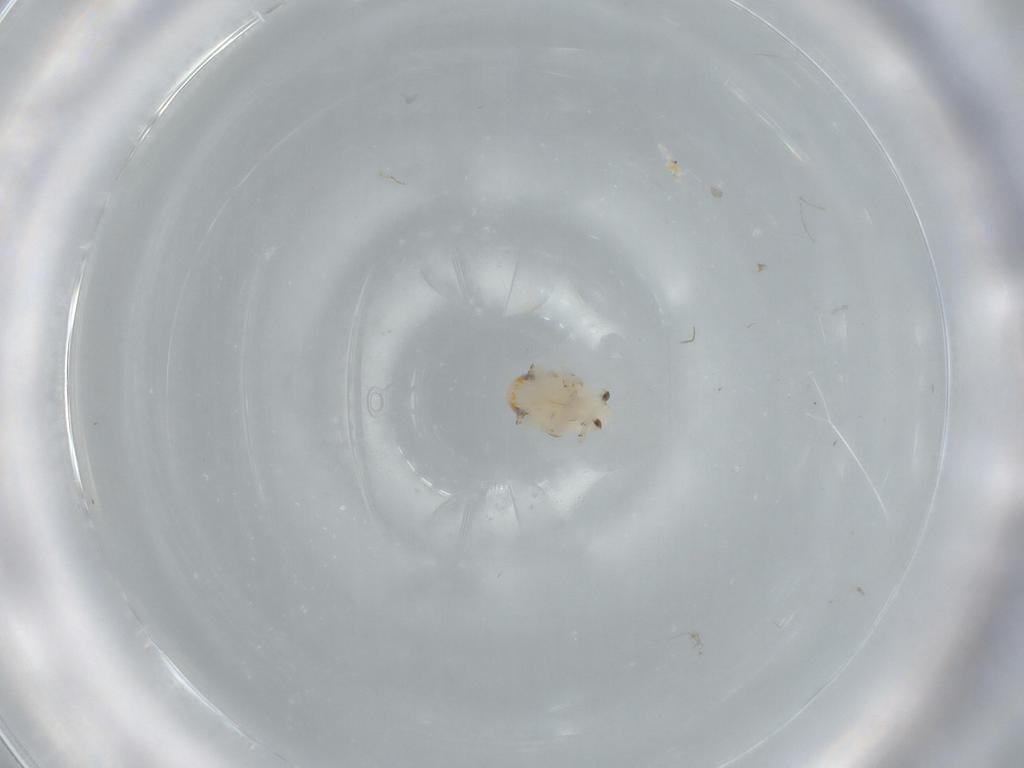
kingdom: Animalia
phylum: Arthropoda
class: Insecta
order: Hemiptera
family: Nogodinidae
